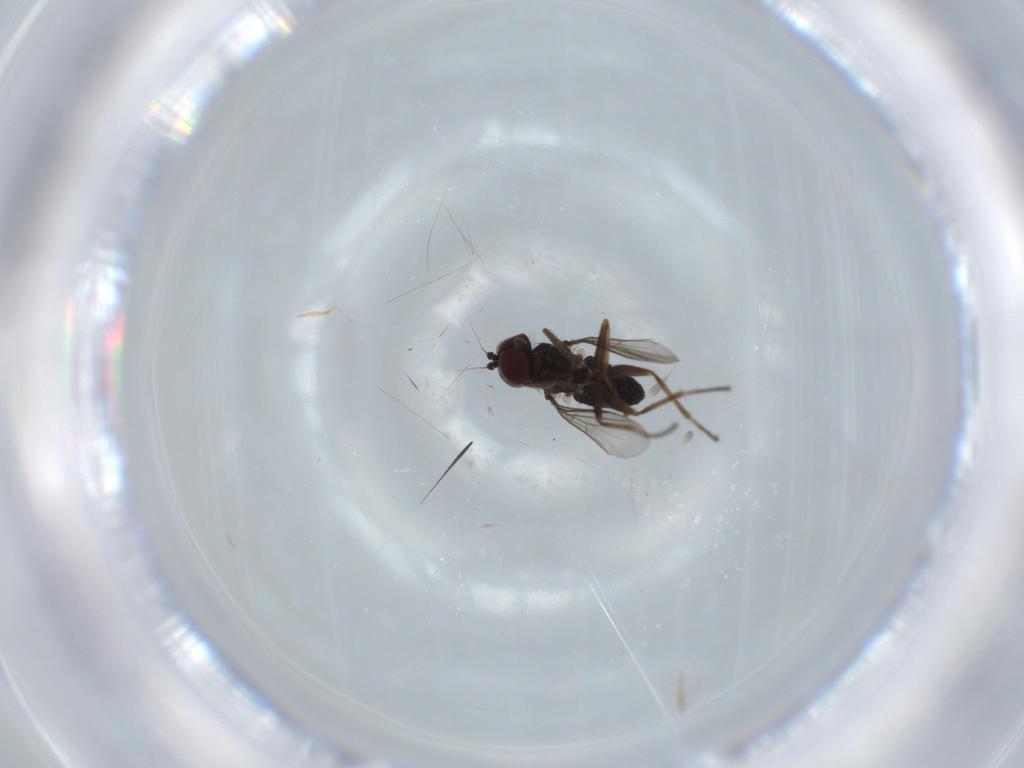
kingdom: Animalia
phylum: Arthropoda
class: Insecta
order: Diptera
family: Dolichopodidae
